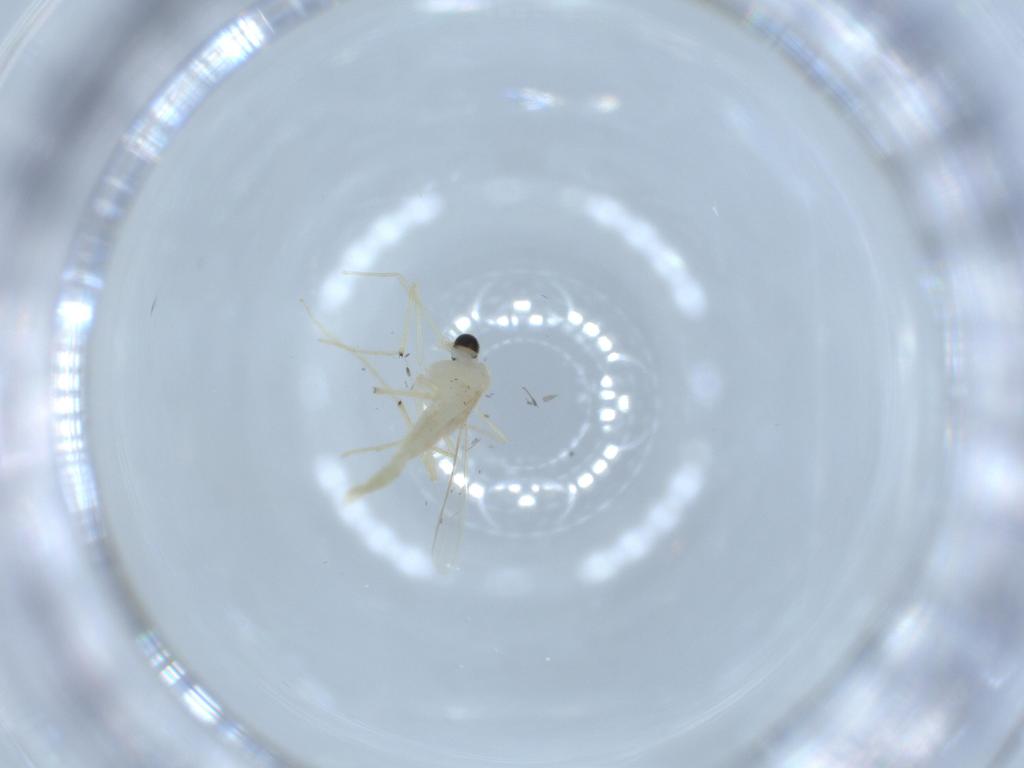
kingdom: Animalia
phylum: Arthropoda
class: Insecta
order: Diptera
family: Chironomidae
